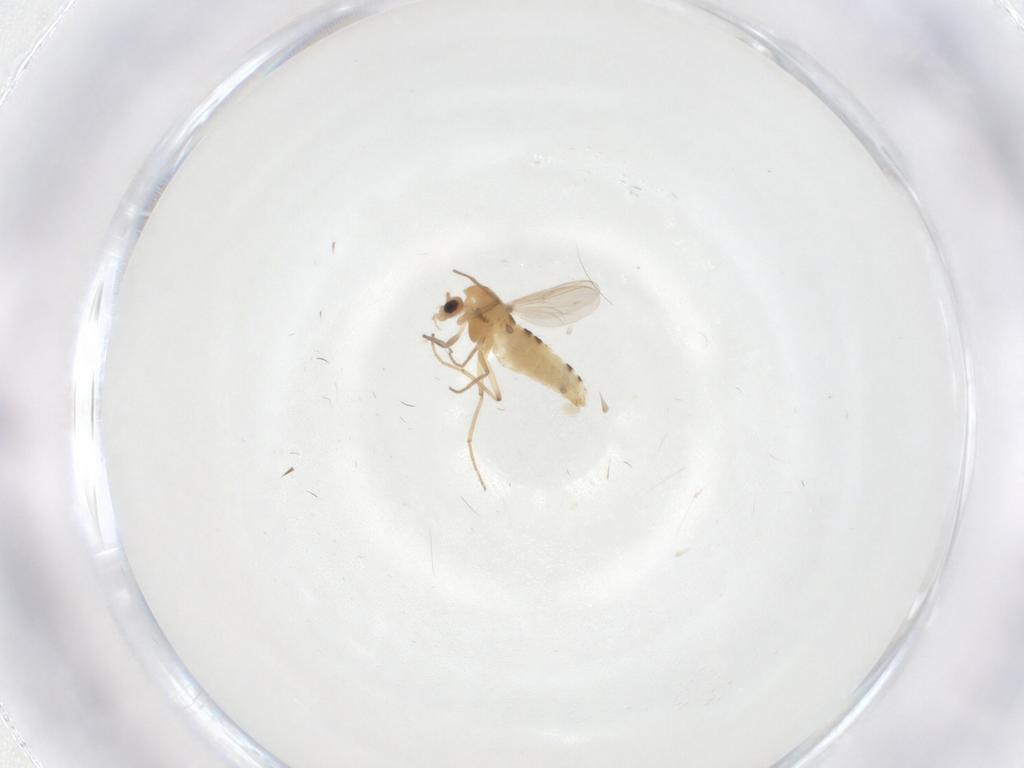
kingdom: Animalia
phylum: Arthropoda
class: Insecta
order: Diptera
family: Chironomidae
